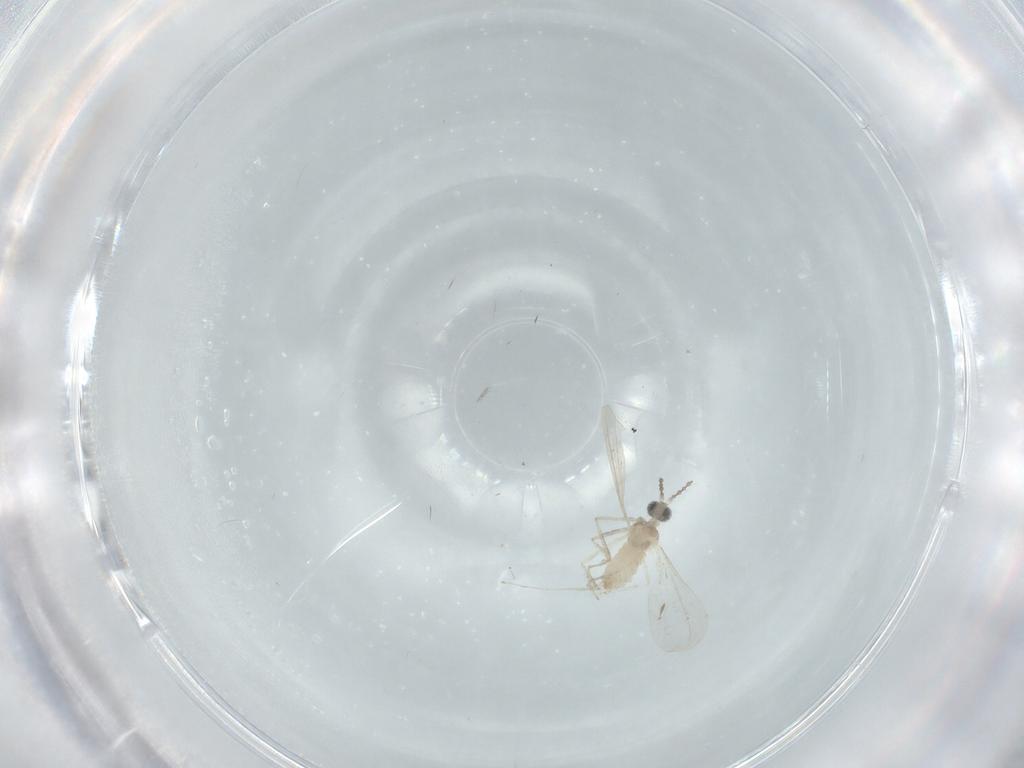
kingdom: Animalia
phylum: Arthropoda
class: Insecta
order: Diptera
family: Cecidomyiidae
